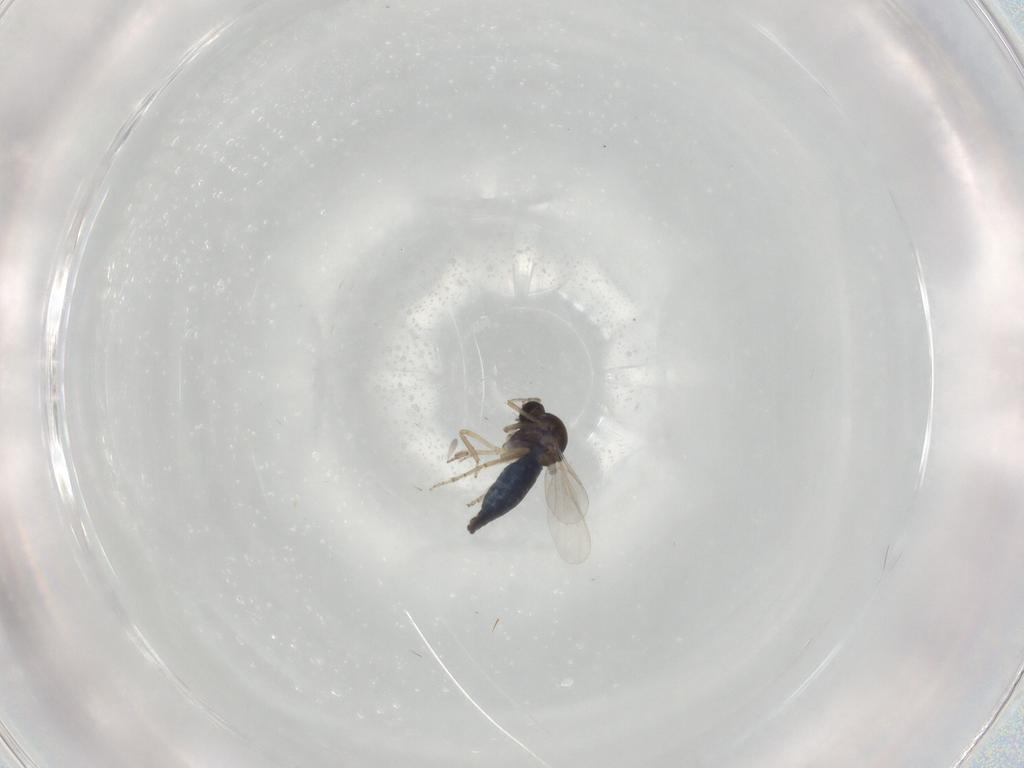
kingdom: Animalia
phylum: Arthropoda
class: Insecta
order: Diptera
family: Ceratopogonidae
